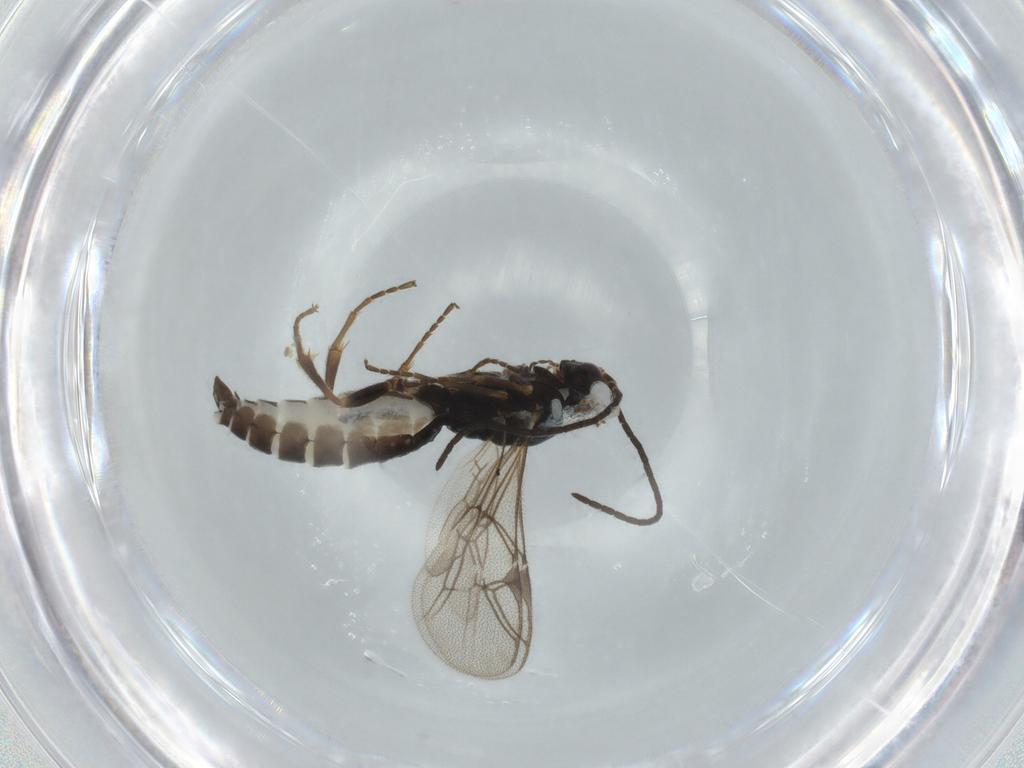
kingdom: Animalia
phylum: Arthropoda
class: Insecta
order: Hymenoptera
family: Ichneumonidae
